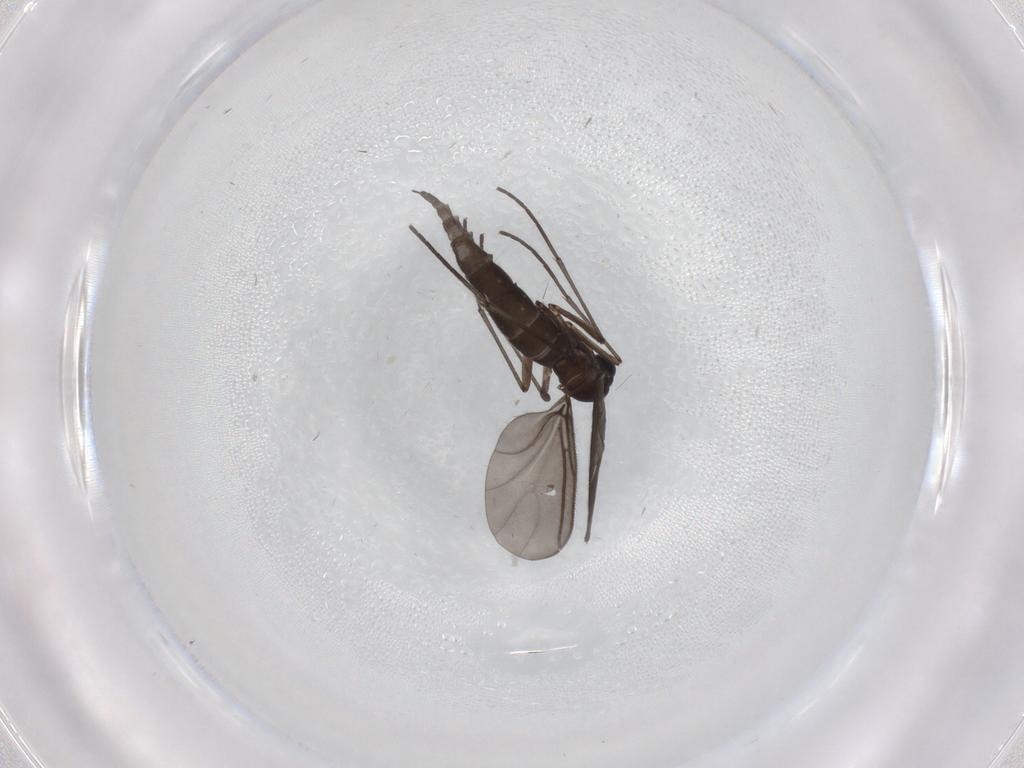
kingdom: Animalia
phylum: Arthropoda
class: Insecta
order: Diptera
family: Sciaridae
